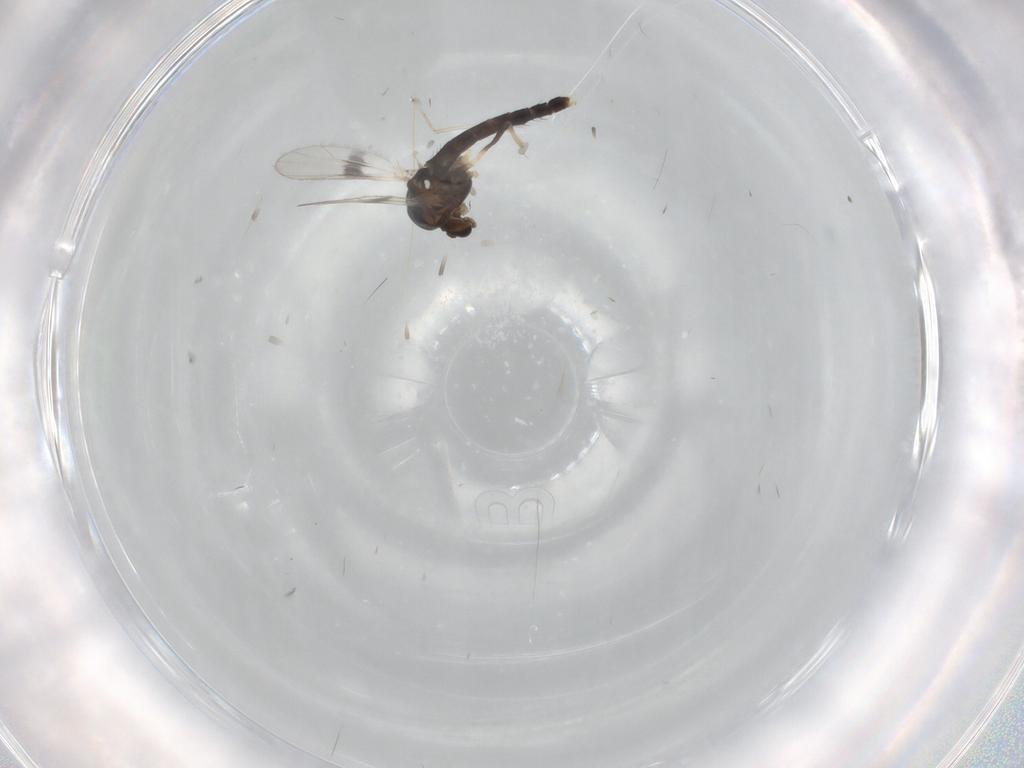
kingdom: Animalia
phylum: Arthropoda
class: Insecta
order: Diptera
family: Chironomidae
